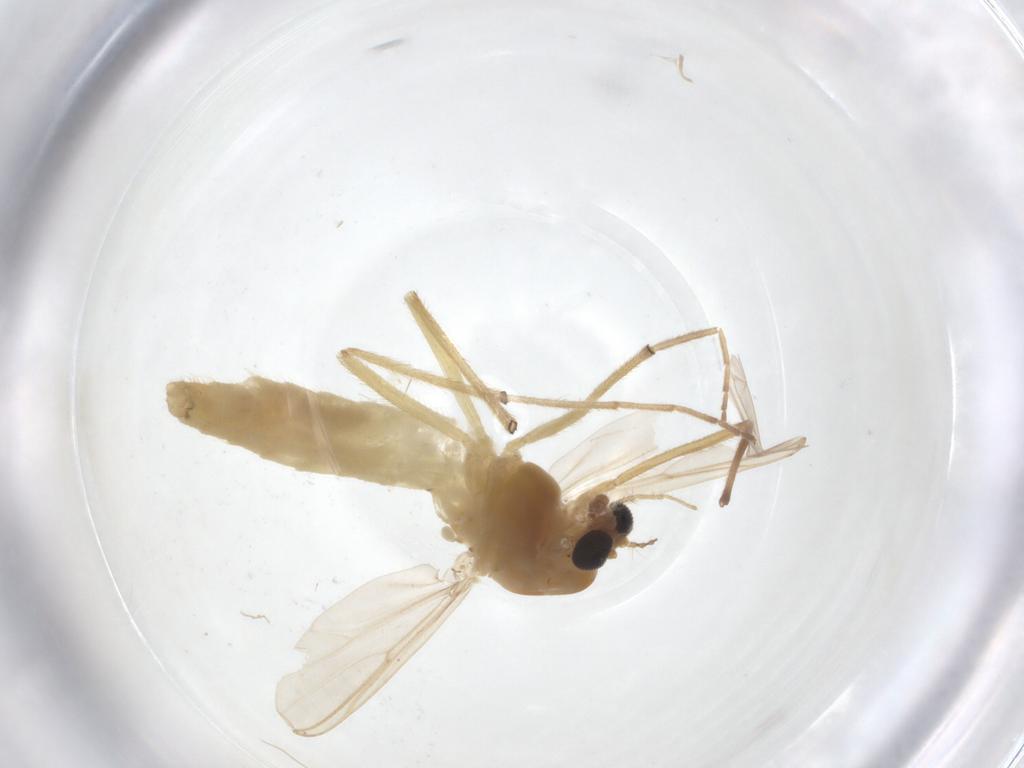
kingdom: Animalia
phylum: Arthropoda
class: Insecta
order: Diptera
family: Chironomidae
